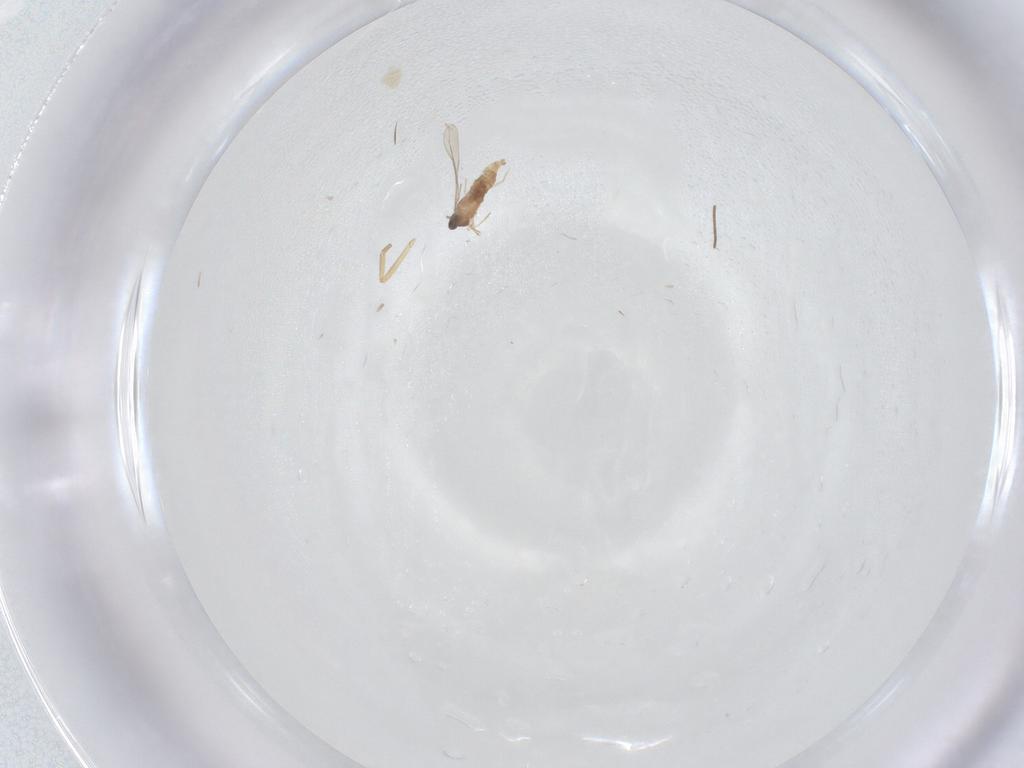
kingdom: Animalia
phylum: Arthropoda
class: Insecta
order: Diptera
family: Cecidomyiidae
